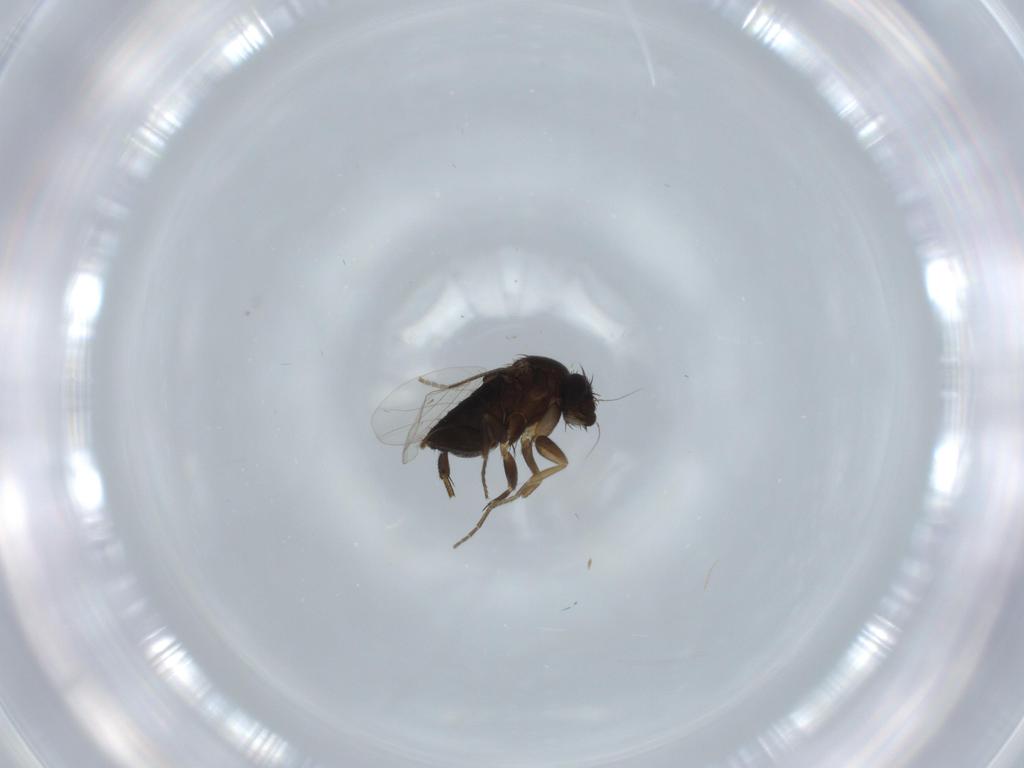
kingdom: Animalia
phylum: Arthropoda
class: Insecta
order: Diptera
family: Phoridae
